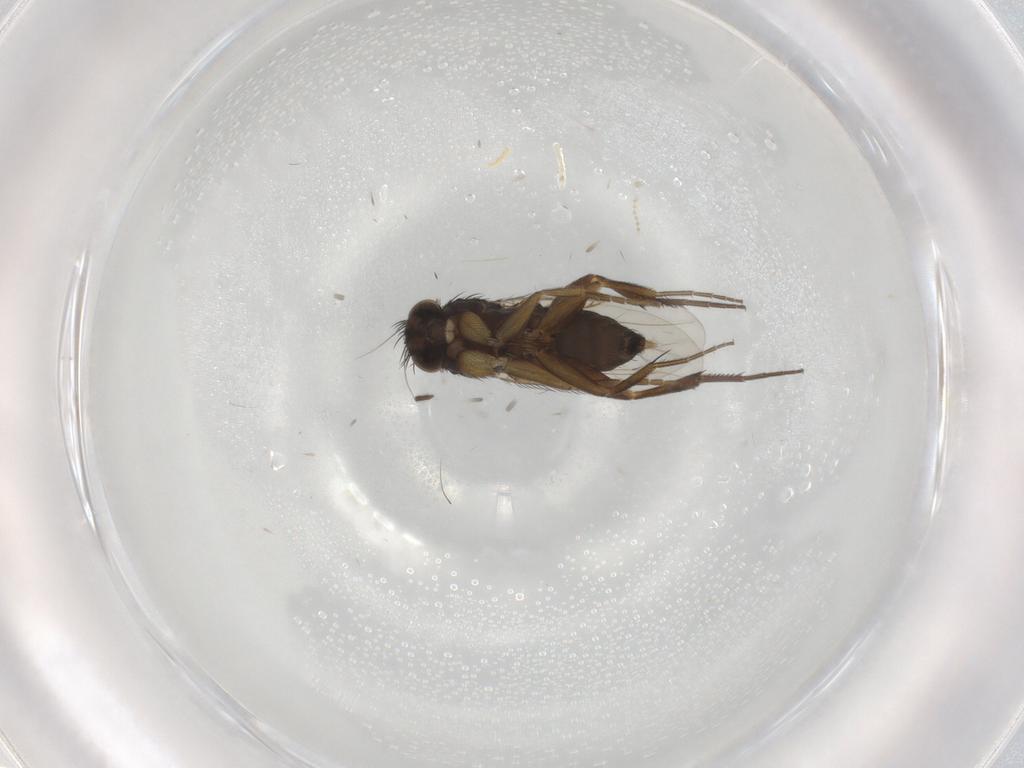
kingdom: Animalia
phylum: Arthropoda
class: Insecta
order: Diptera
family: Phoridae
